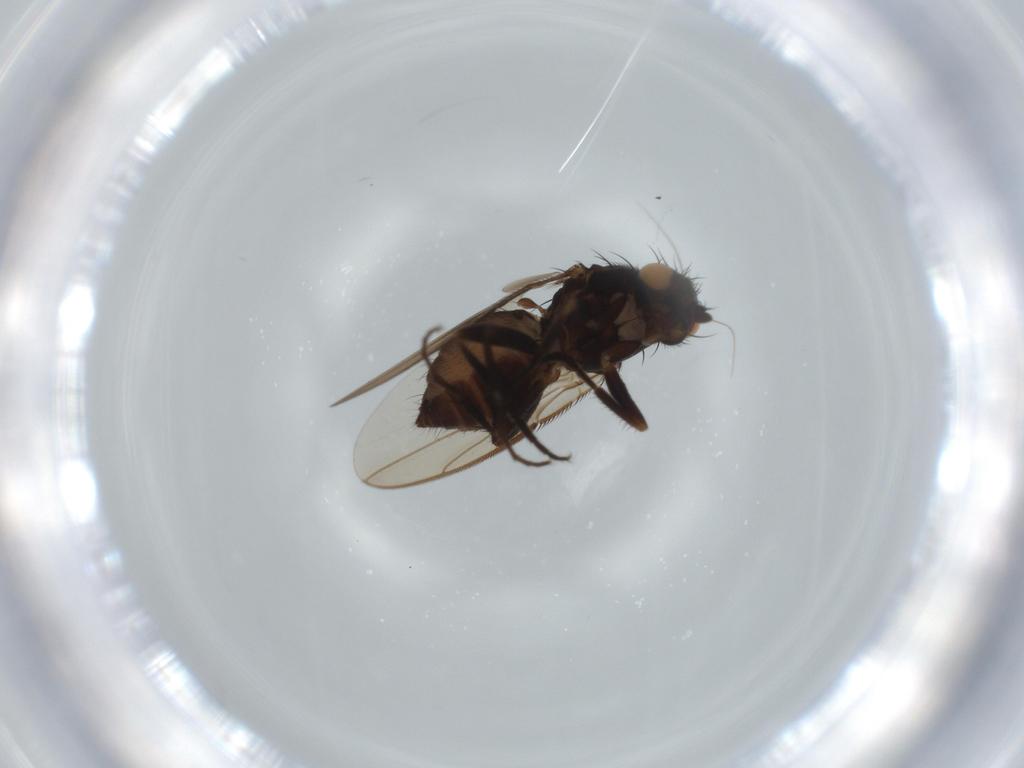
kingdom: Animalia
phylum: Arthropoda
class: Insecta
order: Diptera
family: Sphaeroceridae
